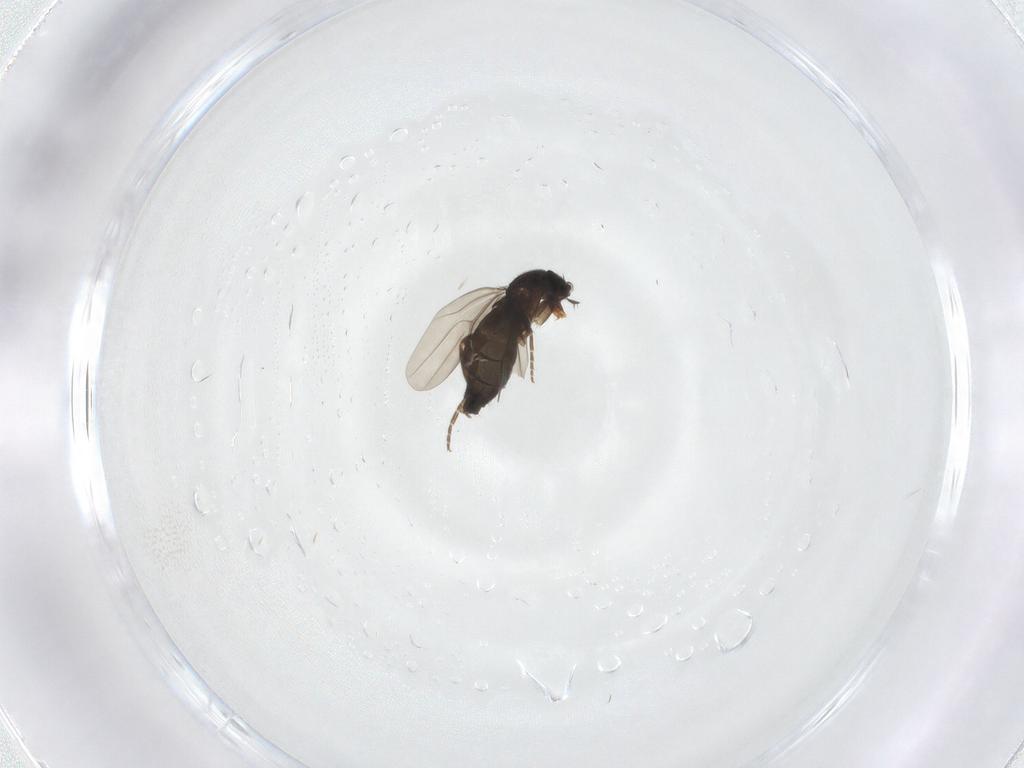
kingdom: Animalia
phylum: Arthropoda
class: Insecta
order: Diptera
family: Phoridae
